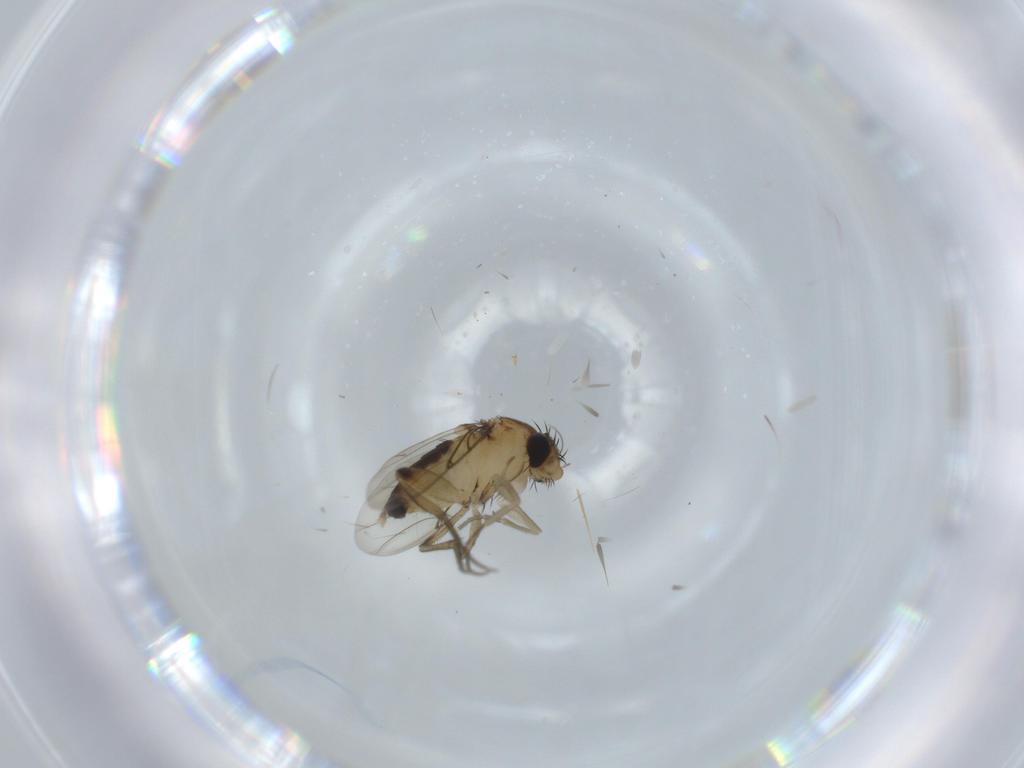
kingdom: Animalia
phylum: Arthropoda
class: Insecta
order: Diptera
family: Phoridae
